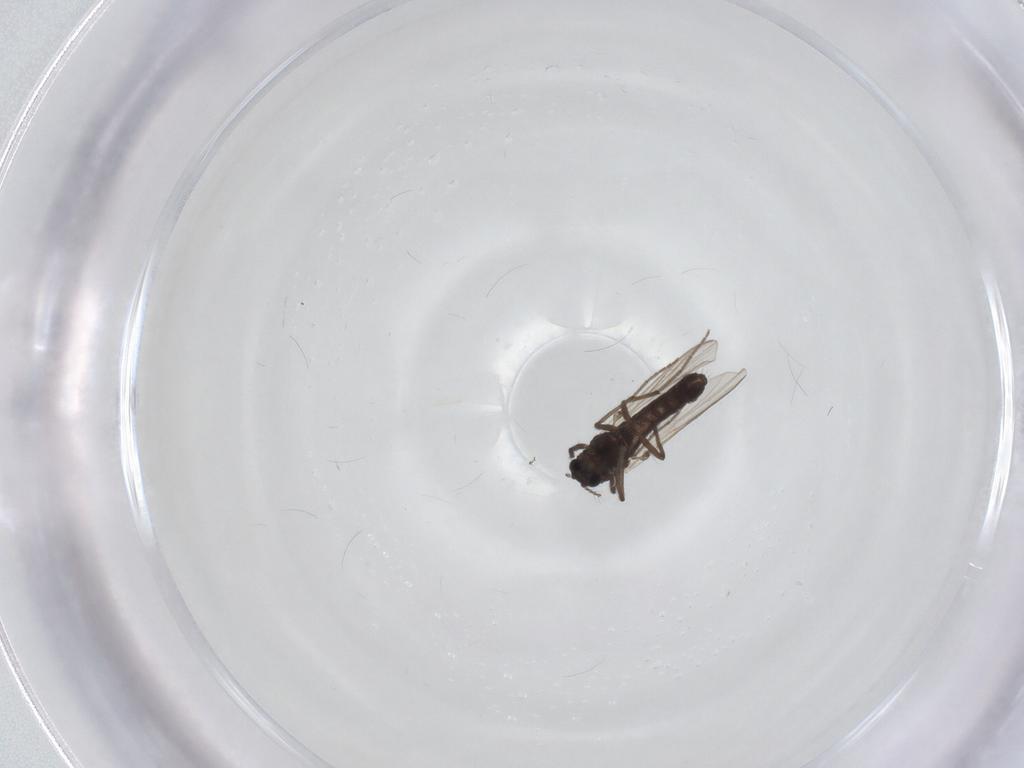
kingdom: Animalia
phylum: Arthropoda
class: Insecta
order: Diptera
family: Chironomidae
